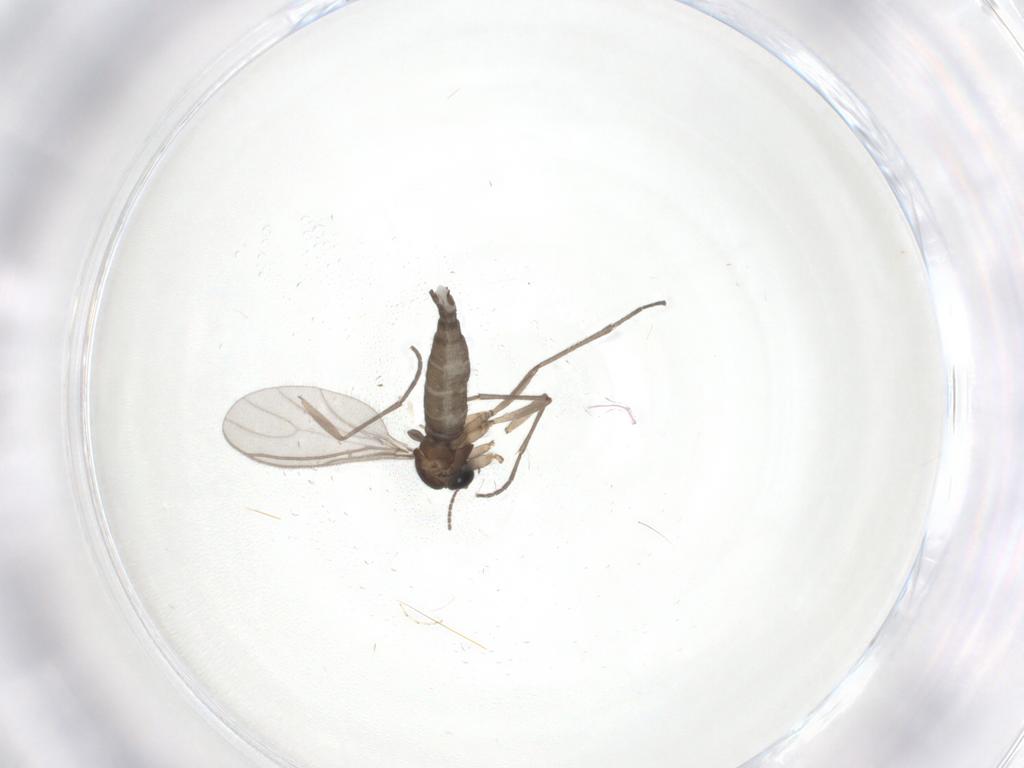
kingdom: Animalia
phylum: Arthropoda
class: Insecta
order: Diptera
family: Sciaridae
